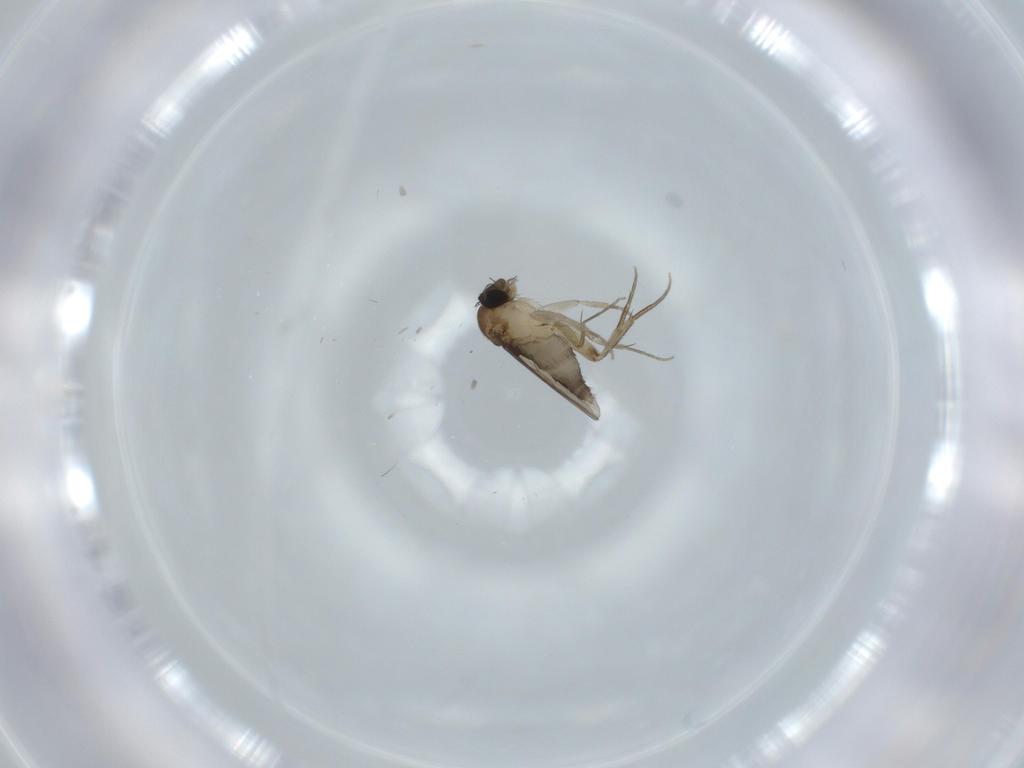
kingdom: Animalia
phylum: Arthropoda
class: Insecta
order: Diptera
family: Phoridae
